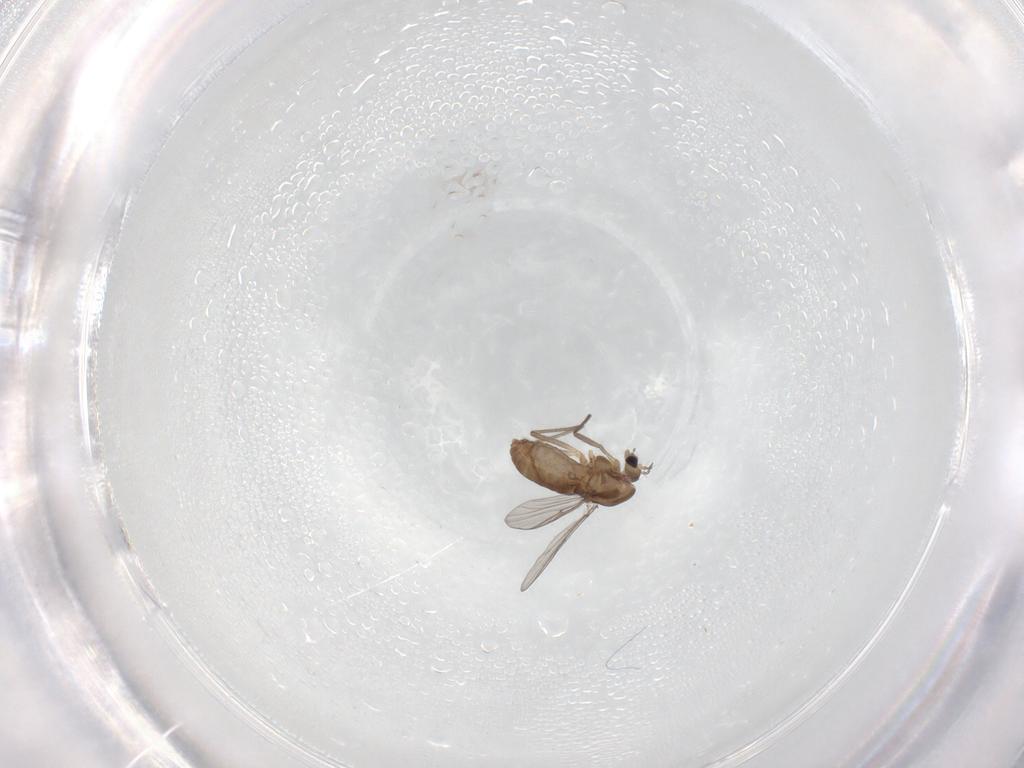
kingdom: Animalia
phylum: Arthropoda
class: Insecta
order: Diptera
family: Chironomidae
